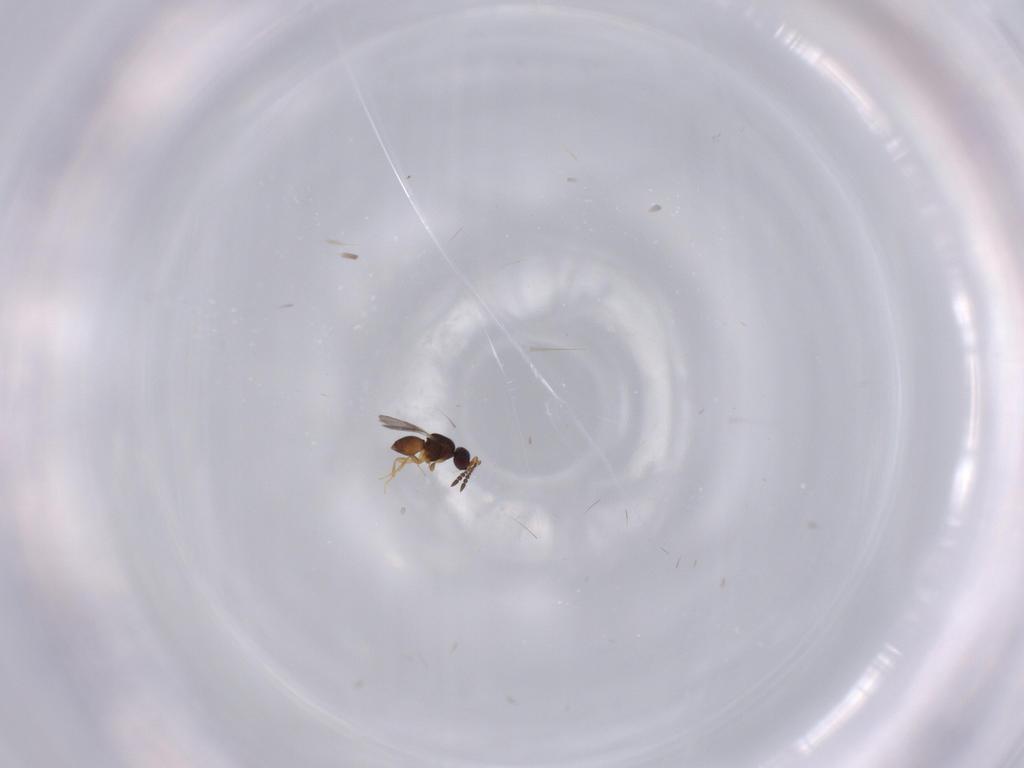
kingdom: Animalia
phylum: Arthropoda
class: Insecta
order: Hymenoptera
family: Ceraphronidae
